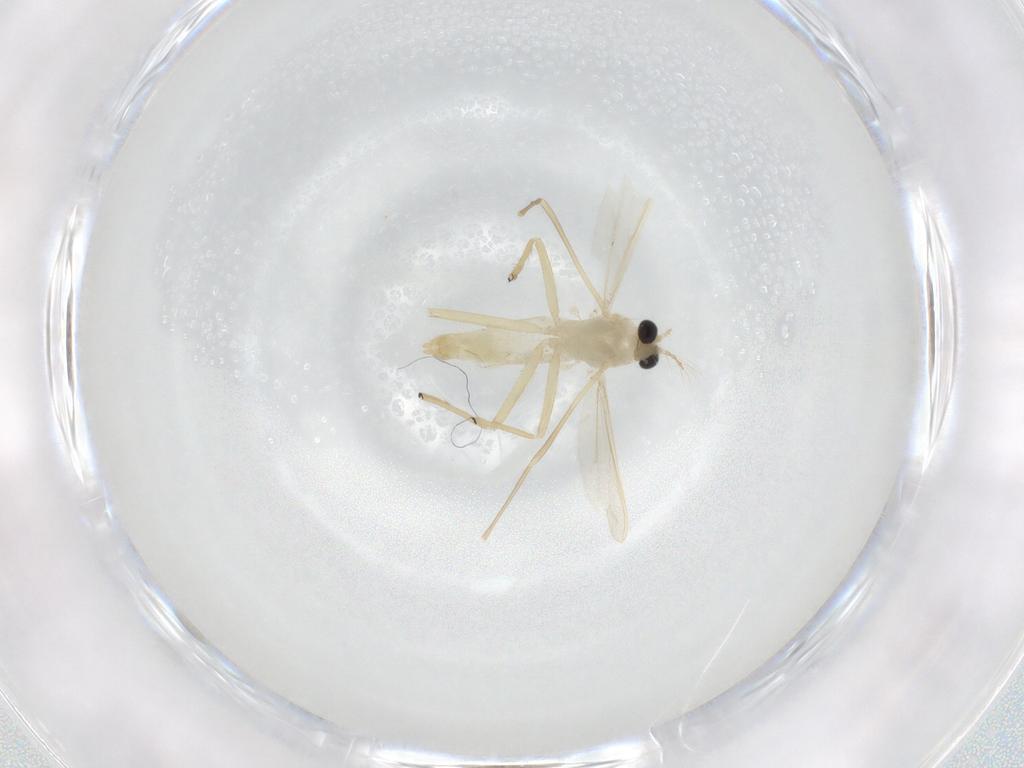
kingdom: Animalia
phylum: Arthropoda
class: Insecta
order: Diptera
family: Chironomidae
